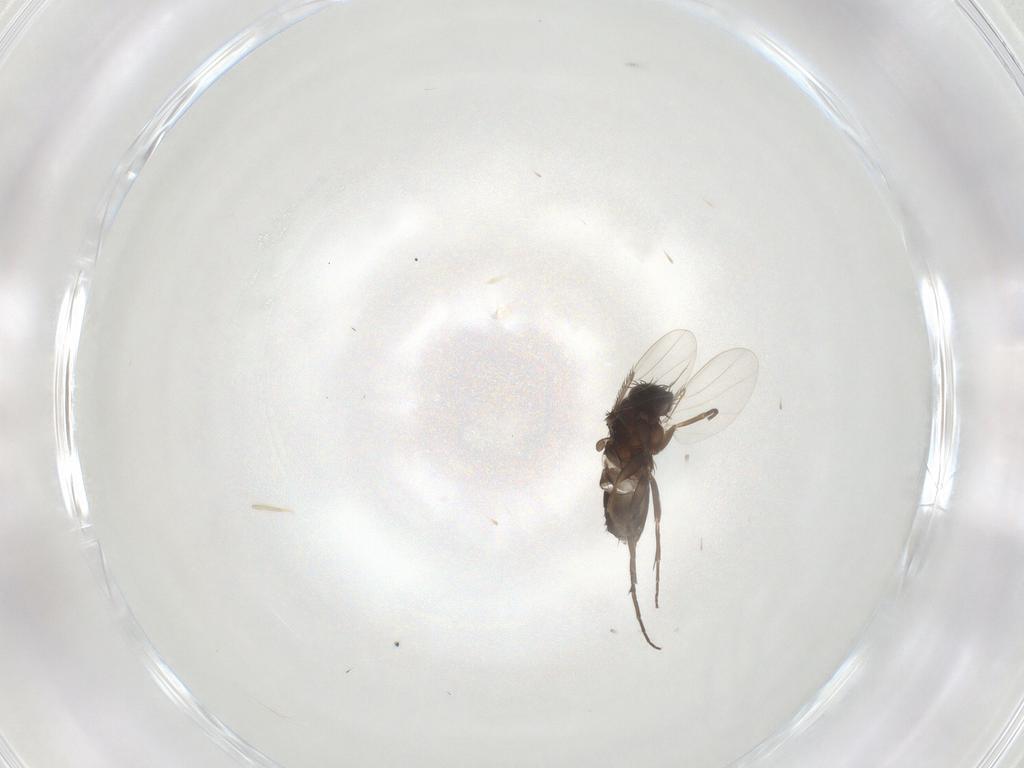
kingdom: Animalia
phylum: Arthropoda
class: Insecta
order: Diptera
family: Phoridae
